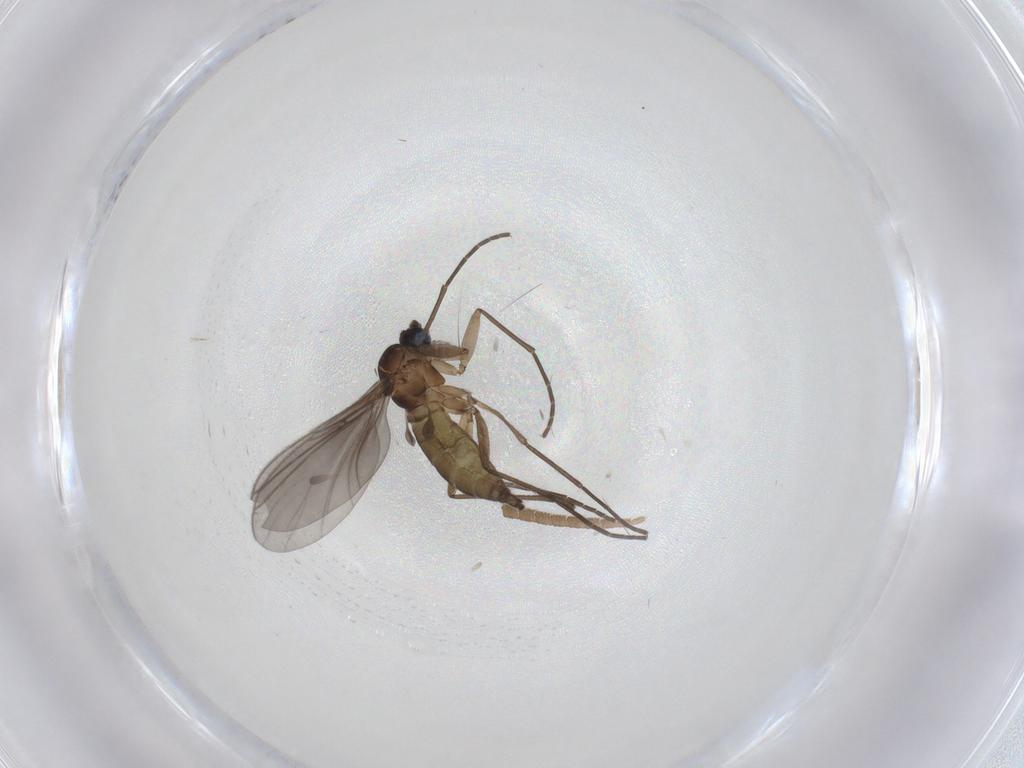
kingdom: Animalia
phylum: Arthropoda
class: Insecta
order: Diptera
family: Sciaridae
